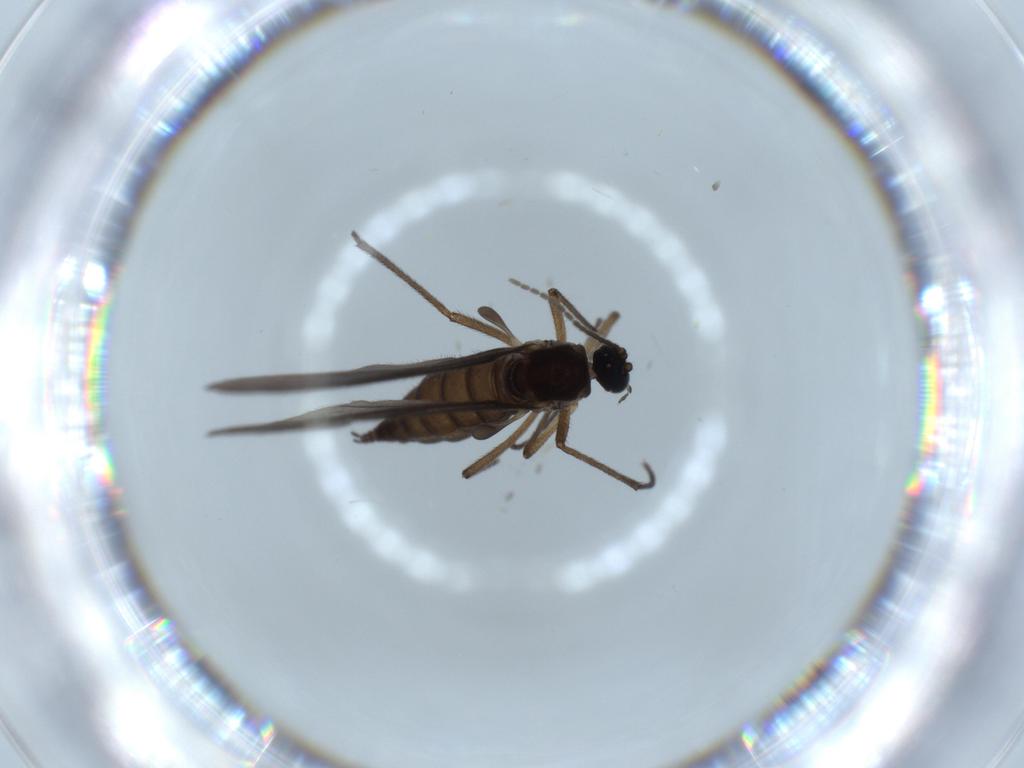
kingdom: Animalia
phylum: Arthropoda
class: Insecta
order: Diptera
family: Sciaridae
